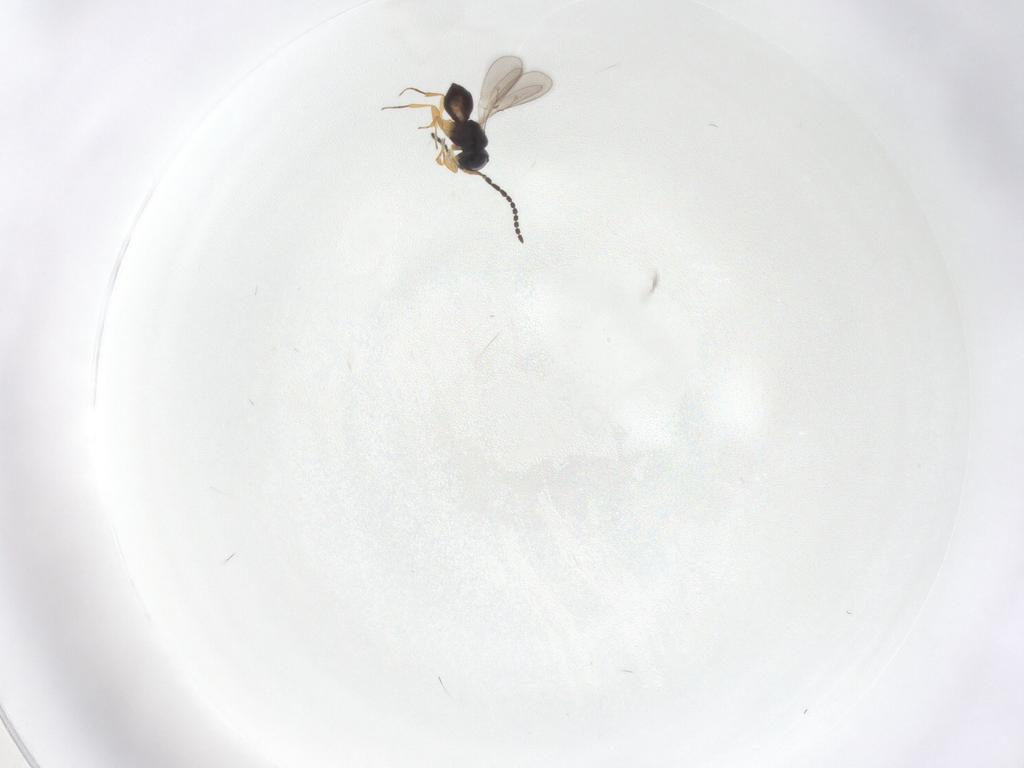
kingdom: Animalia
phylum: Arthropoda
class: Insecta
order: Hymenoptera
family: Scelionidae
